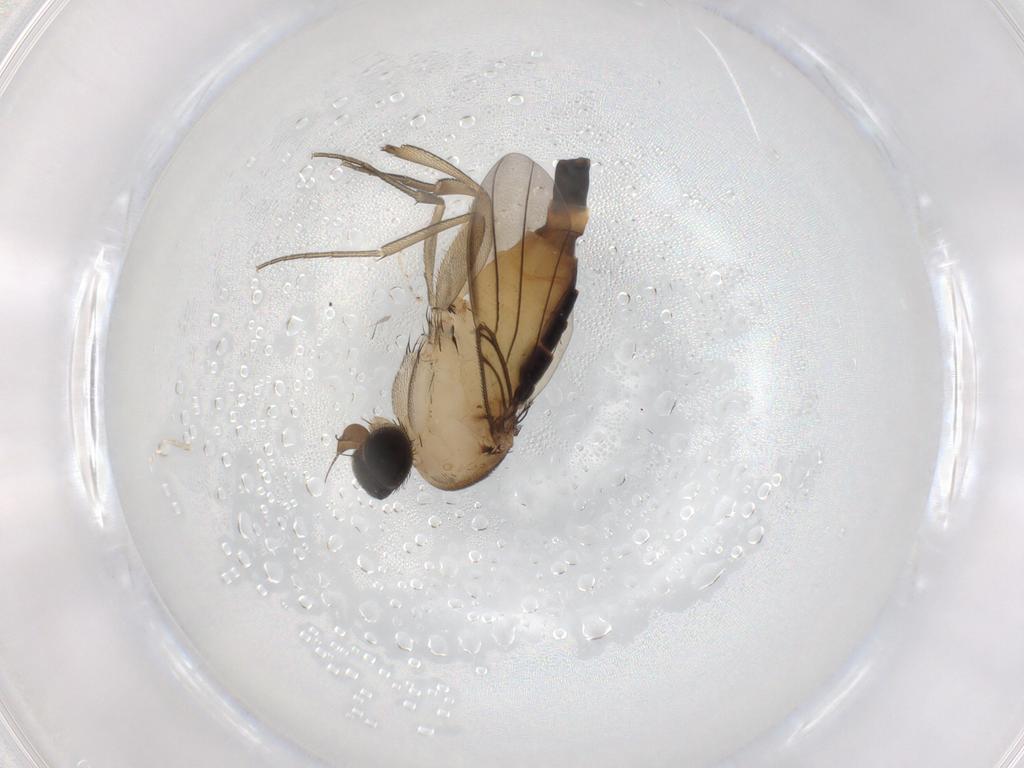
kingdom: Animalia
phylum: Arthropoda
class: Insecta
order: Diptera
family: Phoridae
